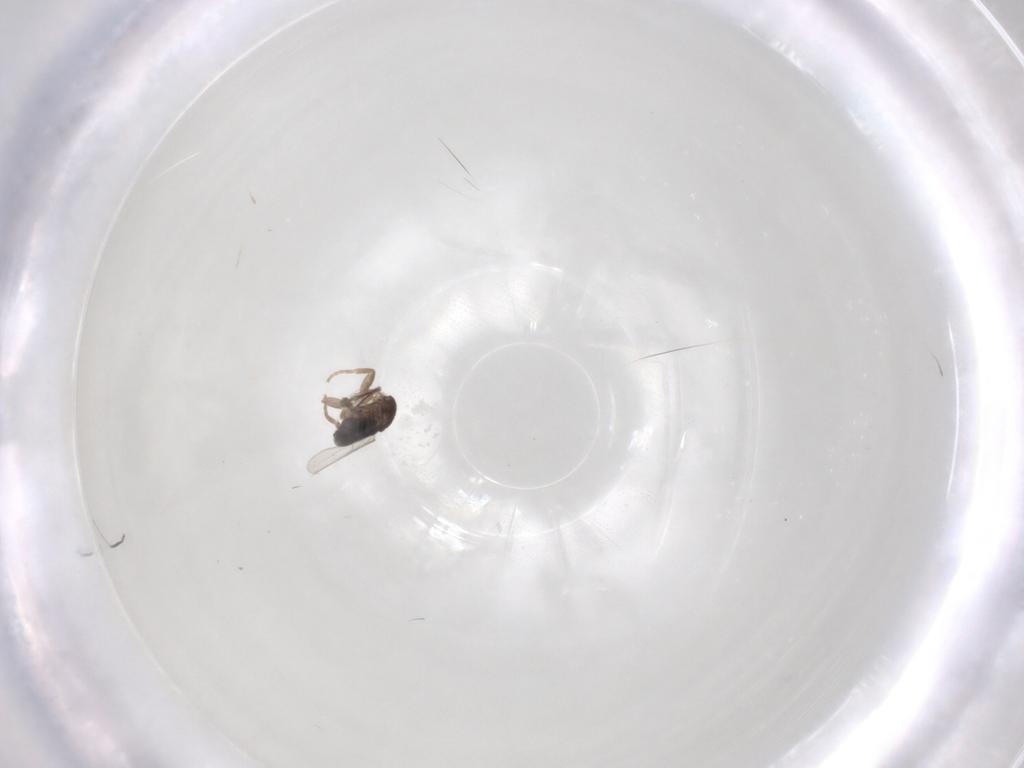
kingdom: Animalia
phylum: Arthropoda
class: Insecta
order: Diptera
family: Phoridae
